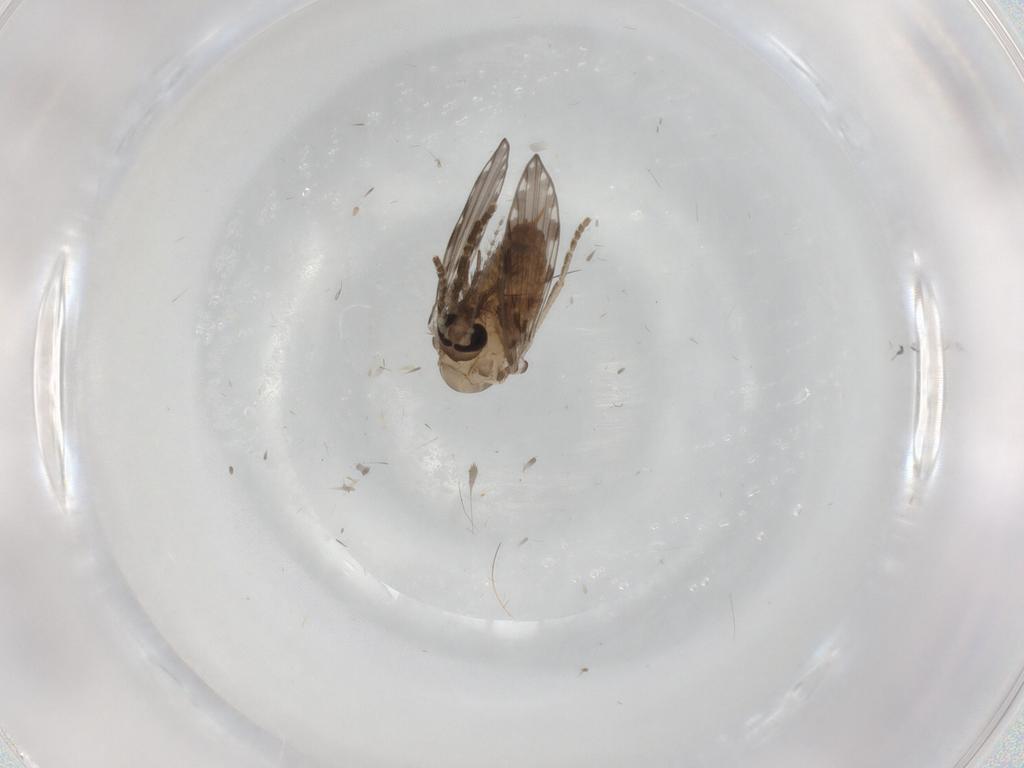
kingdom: Animalia
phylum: Arthropoda
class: Insecta
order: Diptera
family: Psychodidae
